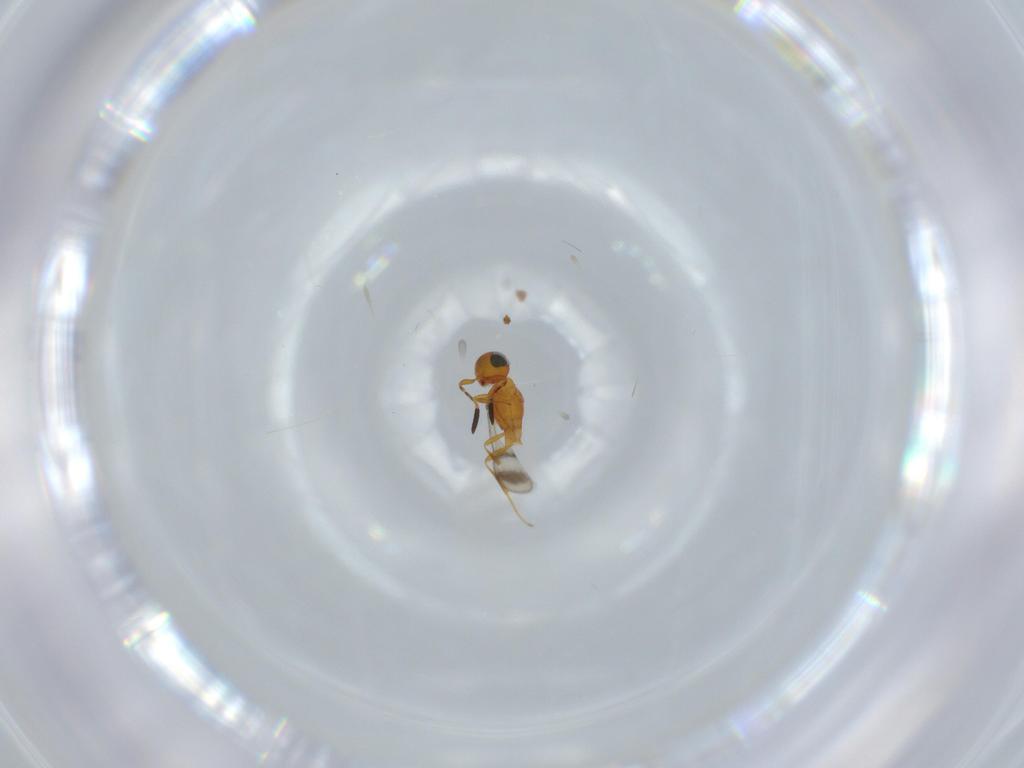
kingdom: Animalia
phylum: Arthropoda
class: Insecta
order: Hymenoptera
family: Scelionidae
